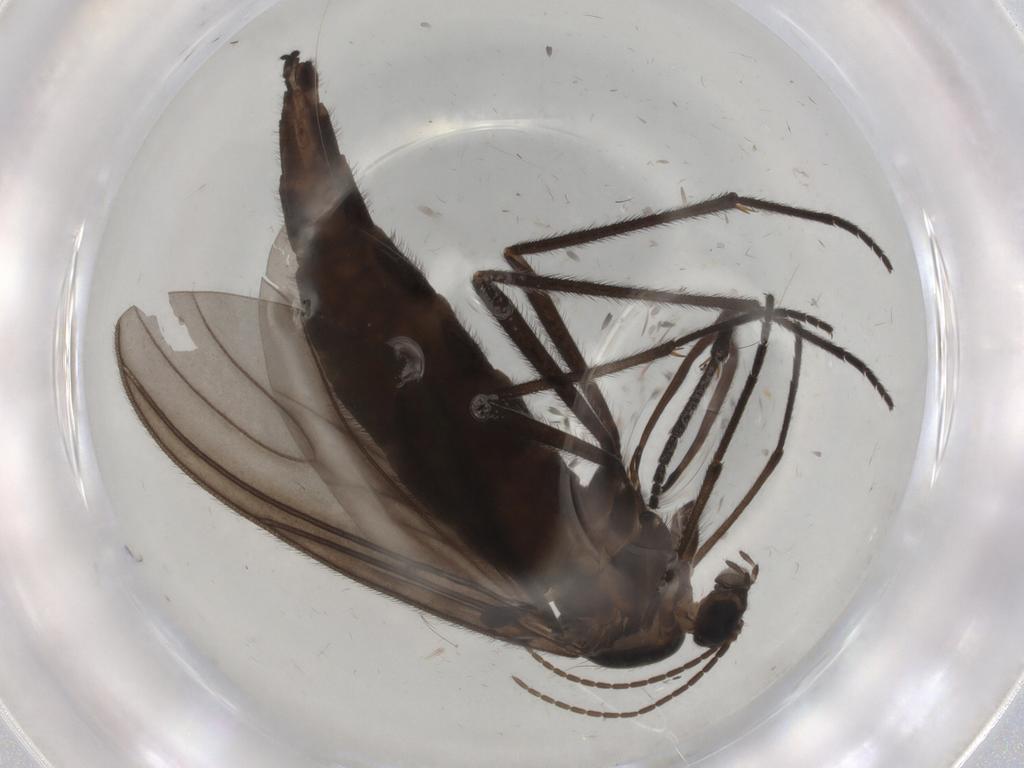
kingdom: Animalia
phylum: Arthropoda
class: Insecta
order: Diptera
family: Sciaridae
